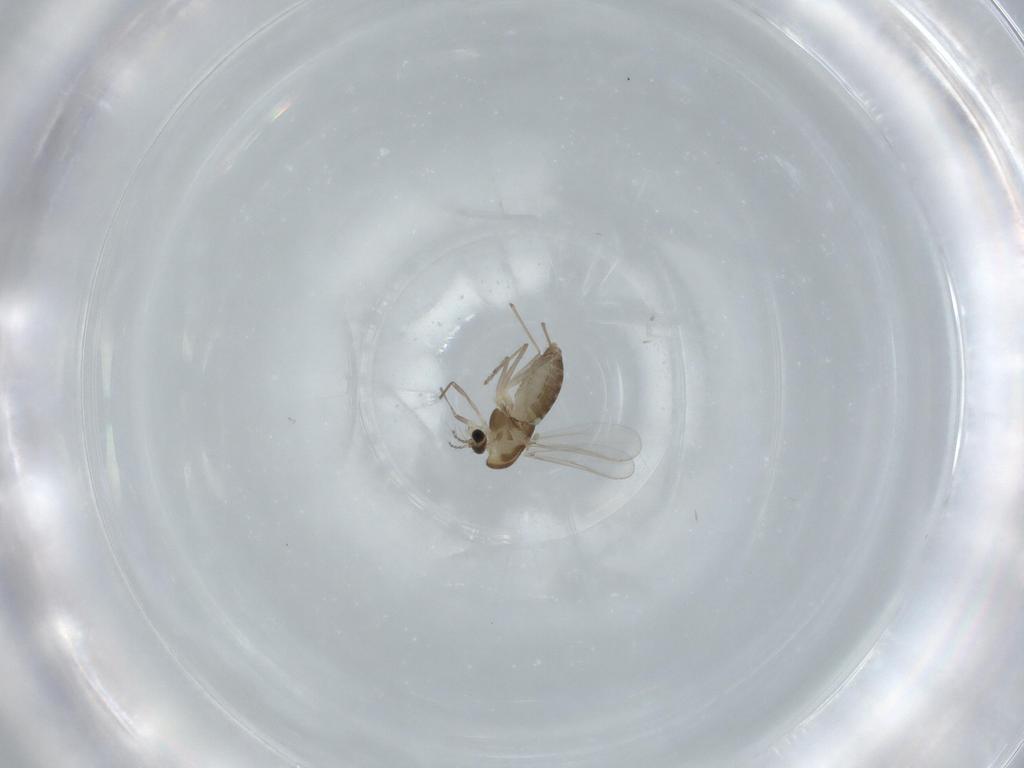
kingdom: Animalia
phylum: Arthropoda
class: Insecta
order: Diptera
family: Chironomidae
